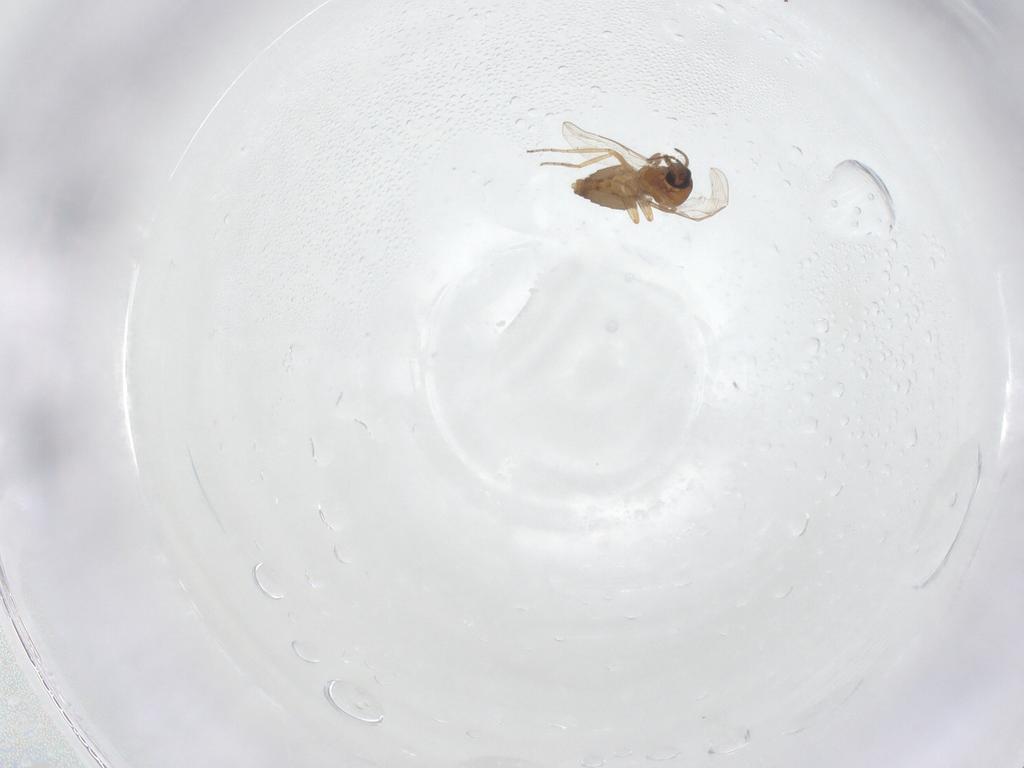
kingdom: Animalia
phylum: Arthropoda
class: Insecta
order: Diptera
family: Ceratopogonidae
